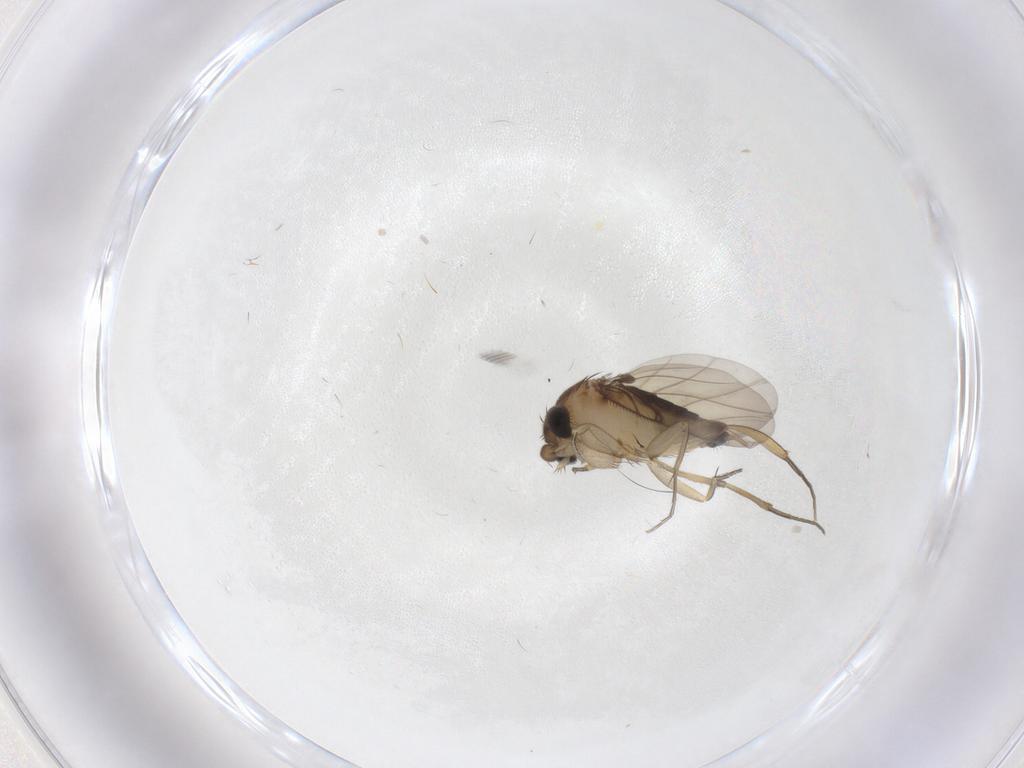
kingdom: Animalia
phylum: Arthropoda
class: Insecta
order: Diptera
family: Phoridae
